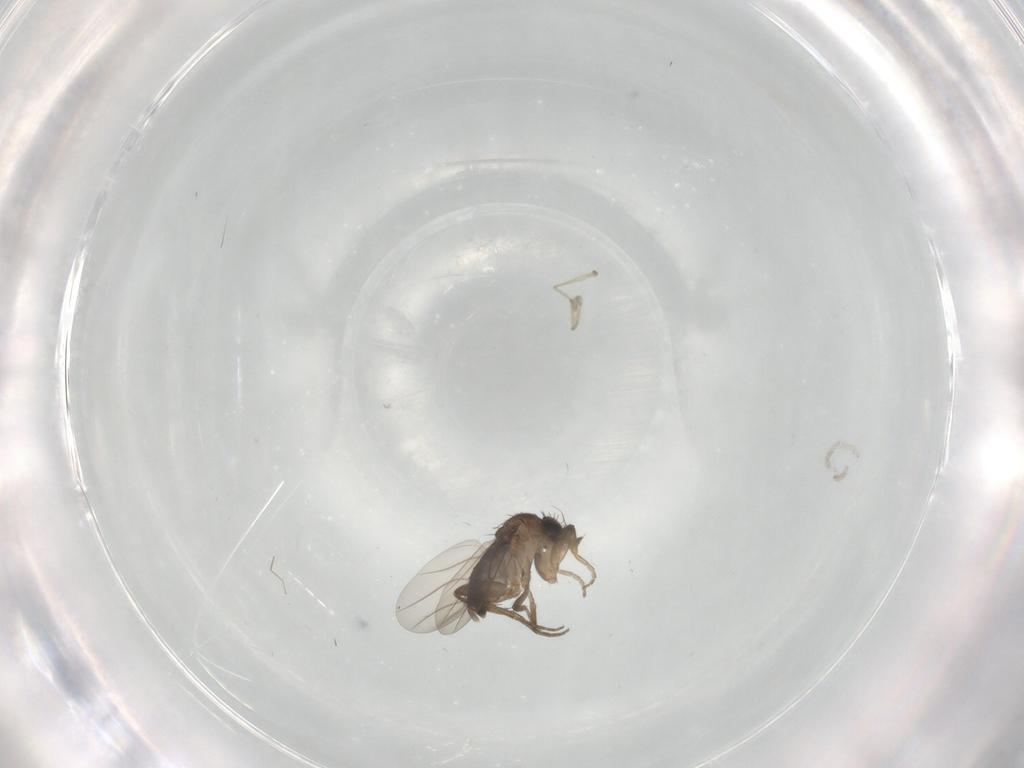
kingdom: Animalia
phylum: Arthropoda
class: Insecta
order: Diptera
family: Phoridae
